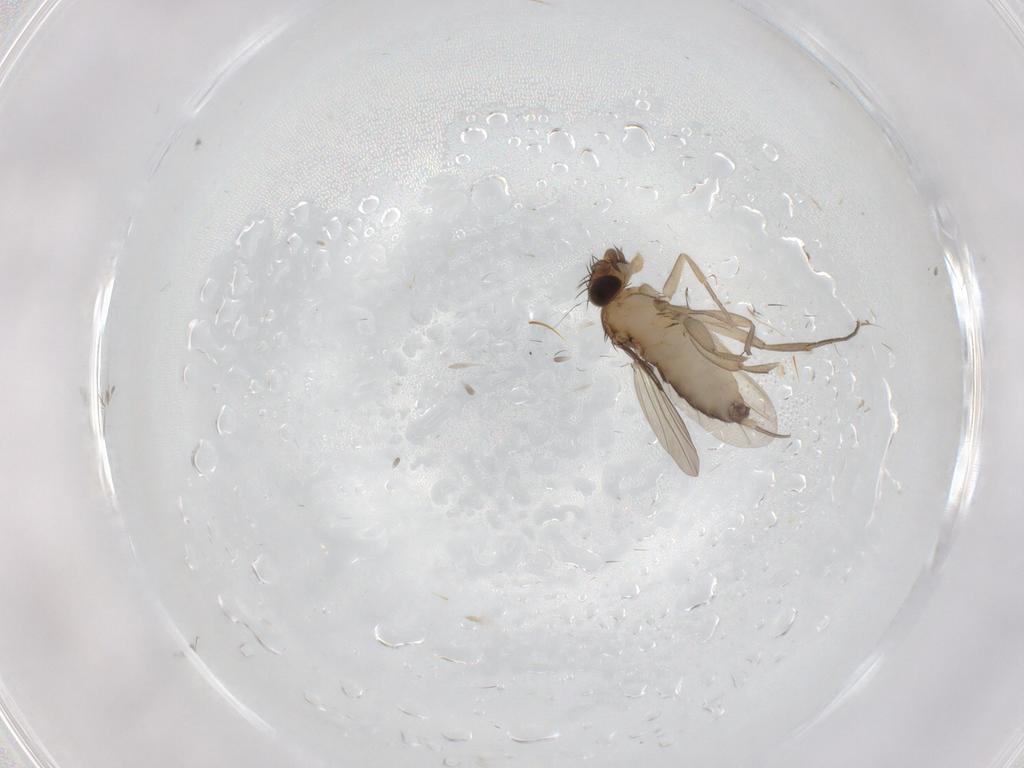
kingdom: Animalia
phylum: Arthropoda
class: Insecta
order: Diptera
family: Phoridae
